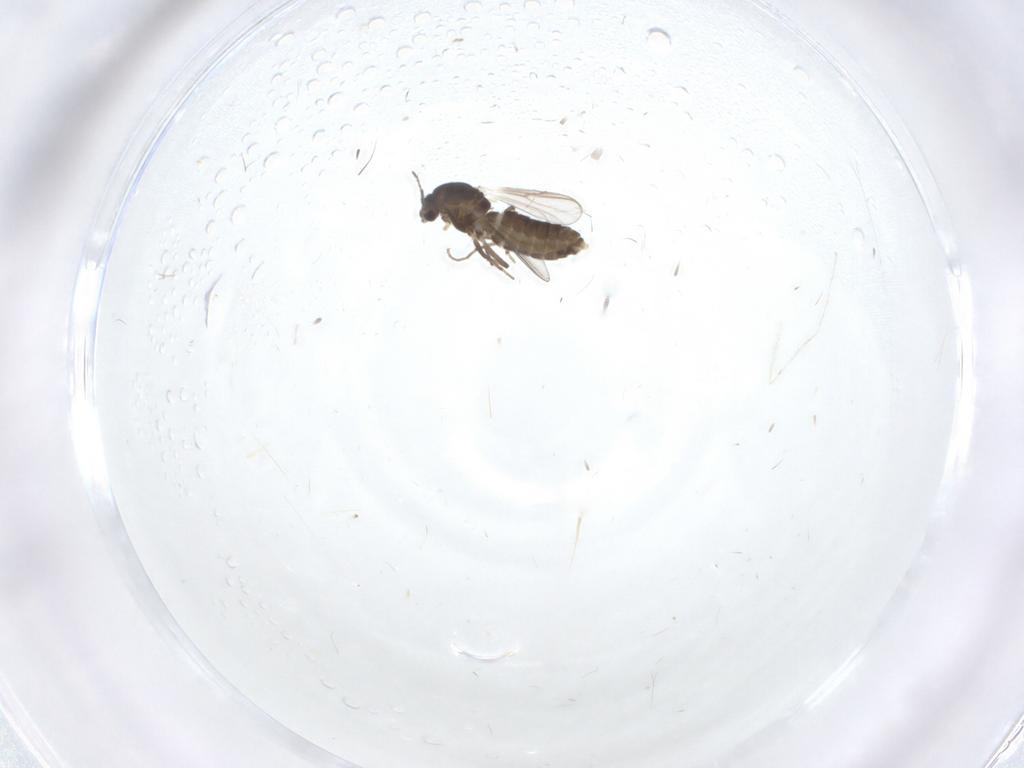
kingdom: Animalia
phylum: Arthropoda
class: Insecta
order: Diptera
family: Chironomidae
